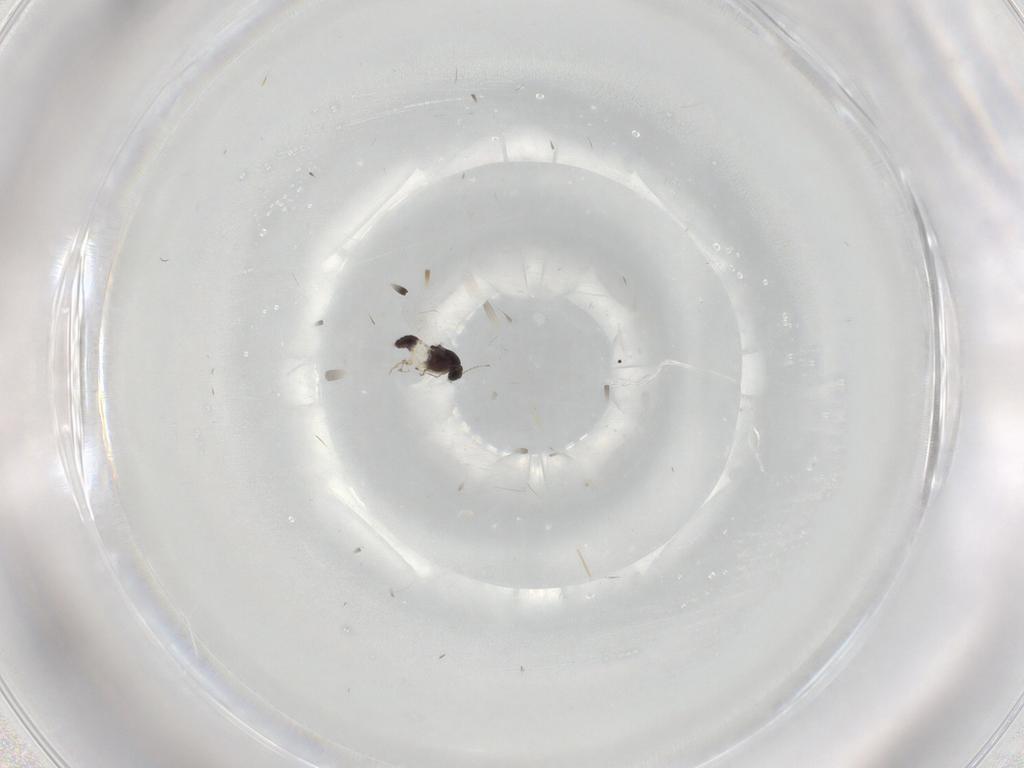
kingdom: Animalia
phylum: Arthropoda
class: Insecta
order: Diptera
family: Chironomidae
